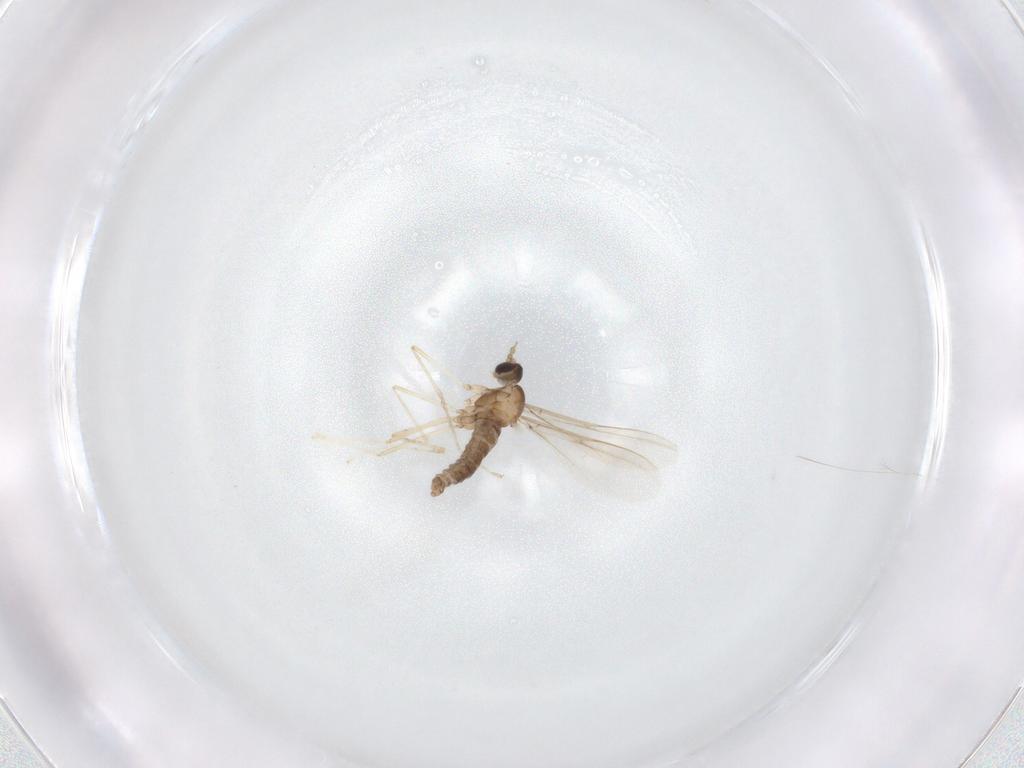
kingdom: Animalia
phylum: Arthropoda
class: Insecta
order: Diptera
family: Cecidomyiidae
